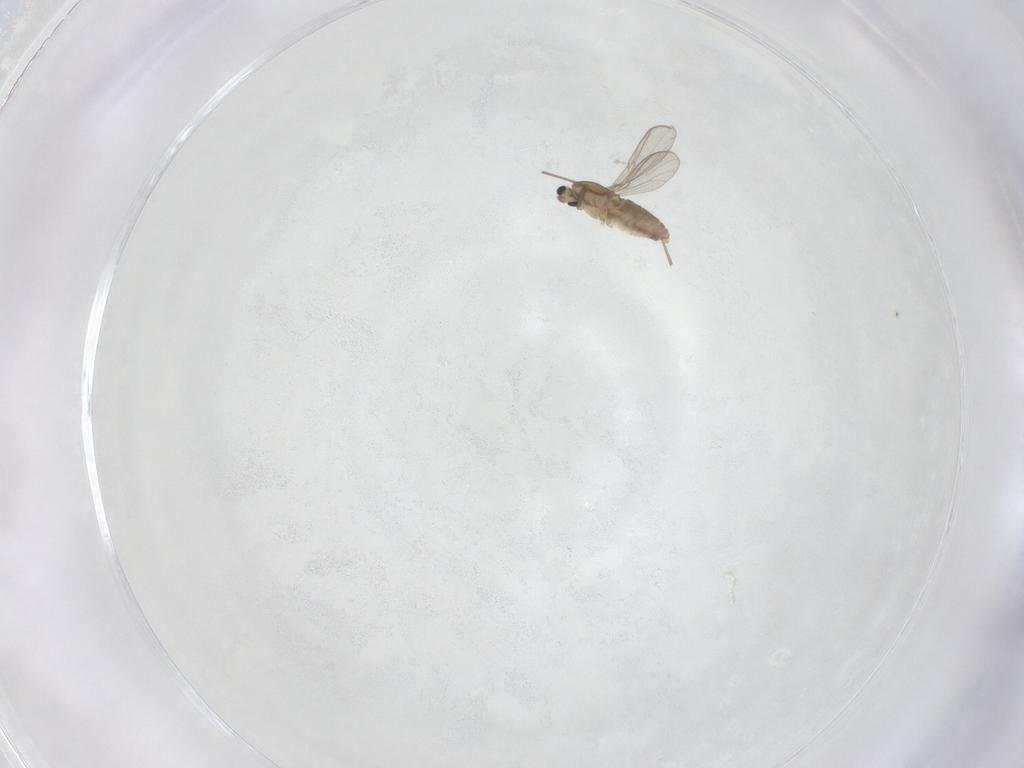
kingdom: Animalia
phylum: Arthropoda
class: Insecta
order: Diptera
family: Chironomidae
